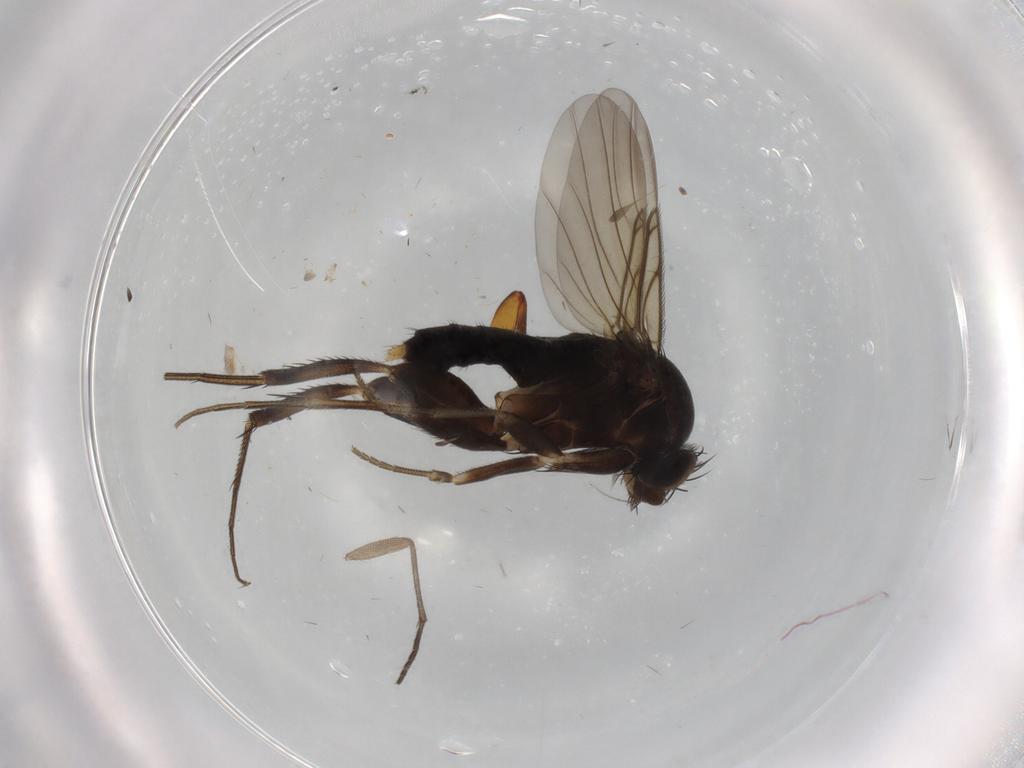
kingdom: Animalia
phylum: Arthropoda
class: Insecta
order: Diptera
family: Phoridae
